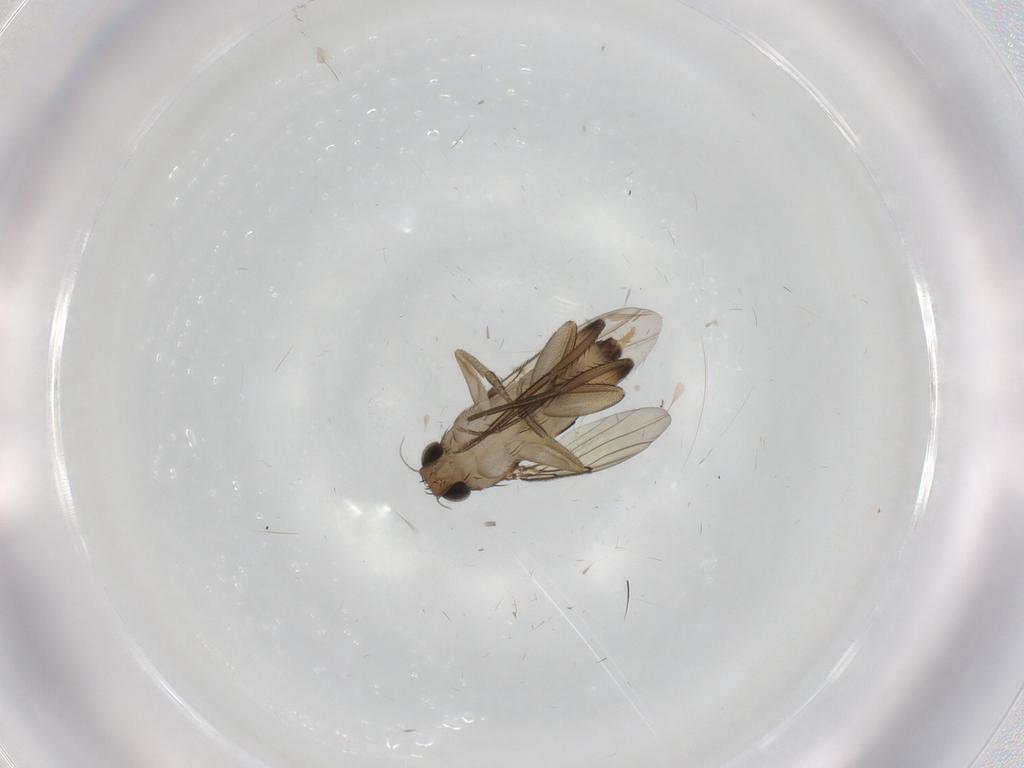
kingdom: Animalia
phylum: Arthropoda
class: Insecta
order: Diptera
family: Phoridae
